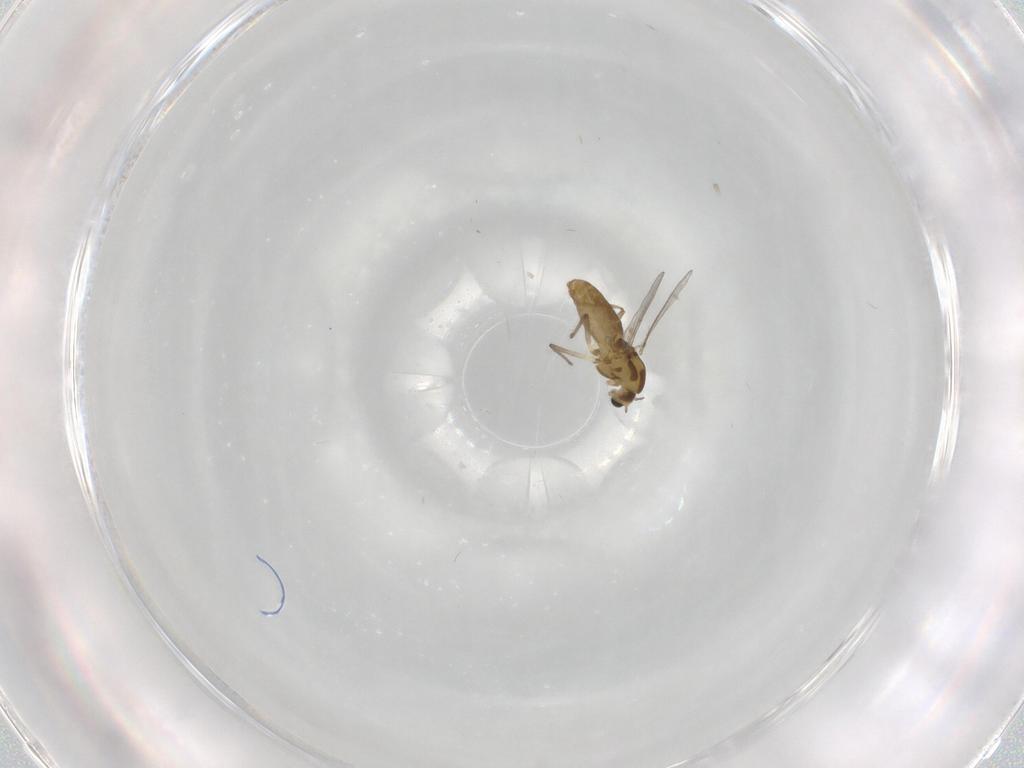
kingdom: Animalia
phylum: Arthropoda
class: Insecta
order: Diptera
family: Chironomidae
